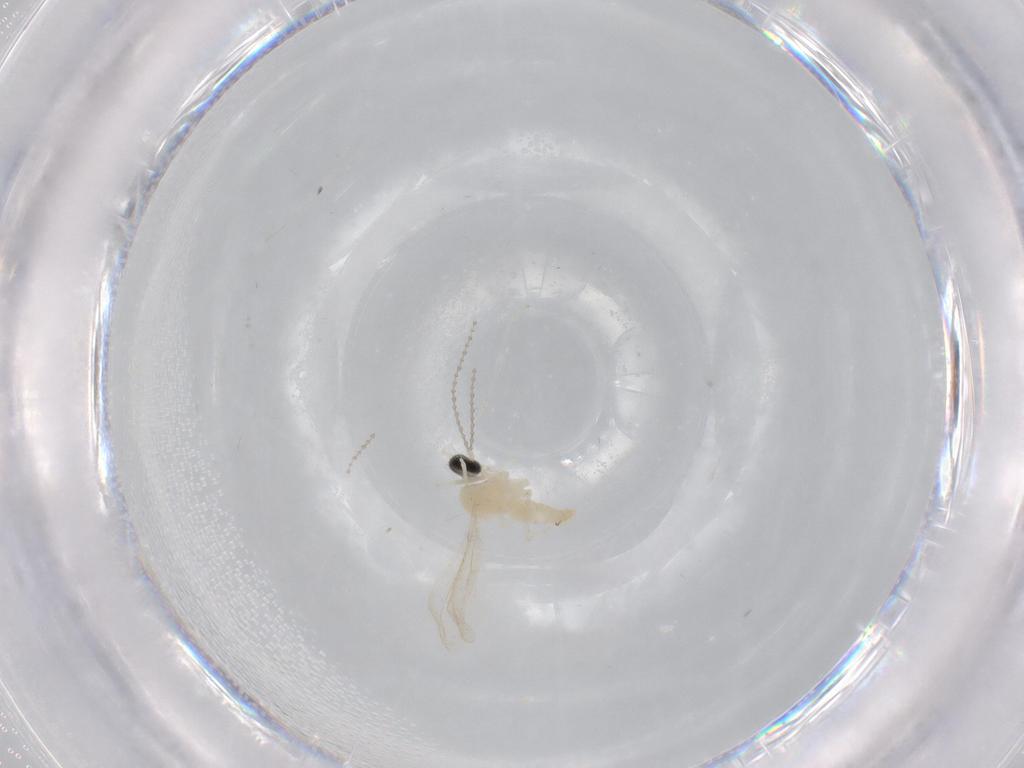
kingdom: Animalia
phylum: Arthropoda
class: Insecta
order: Diptera
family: Cecidomyiidae
